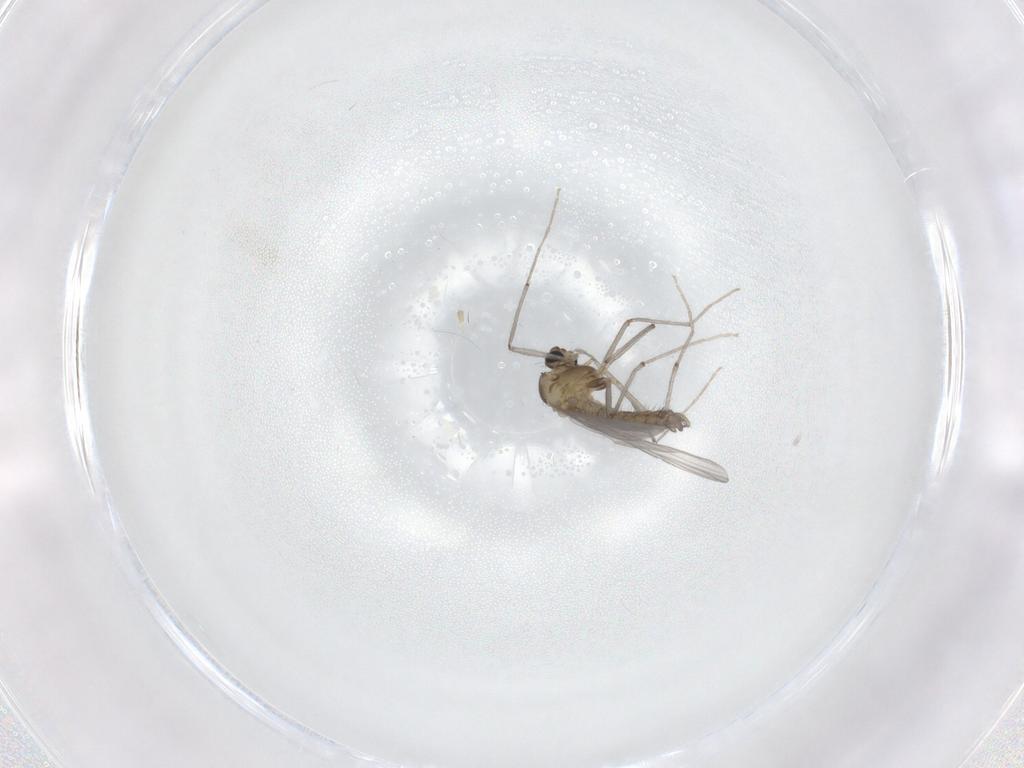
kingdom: Animalia
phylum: Arthropoda
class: Insecta
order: Diptera
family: Chironomidae
